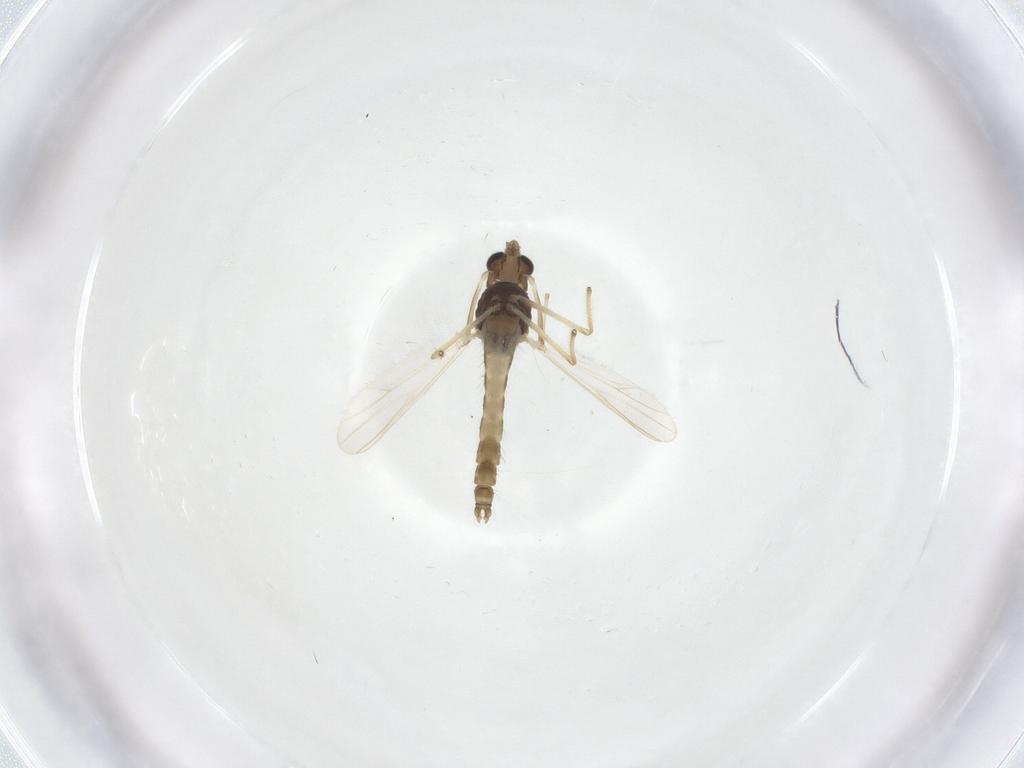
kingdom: Animalia
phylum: Arthropoda
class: Insecta
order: Diptera
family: Chironomidae
